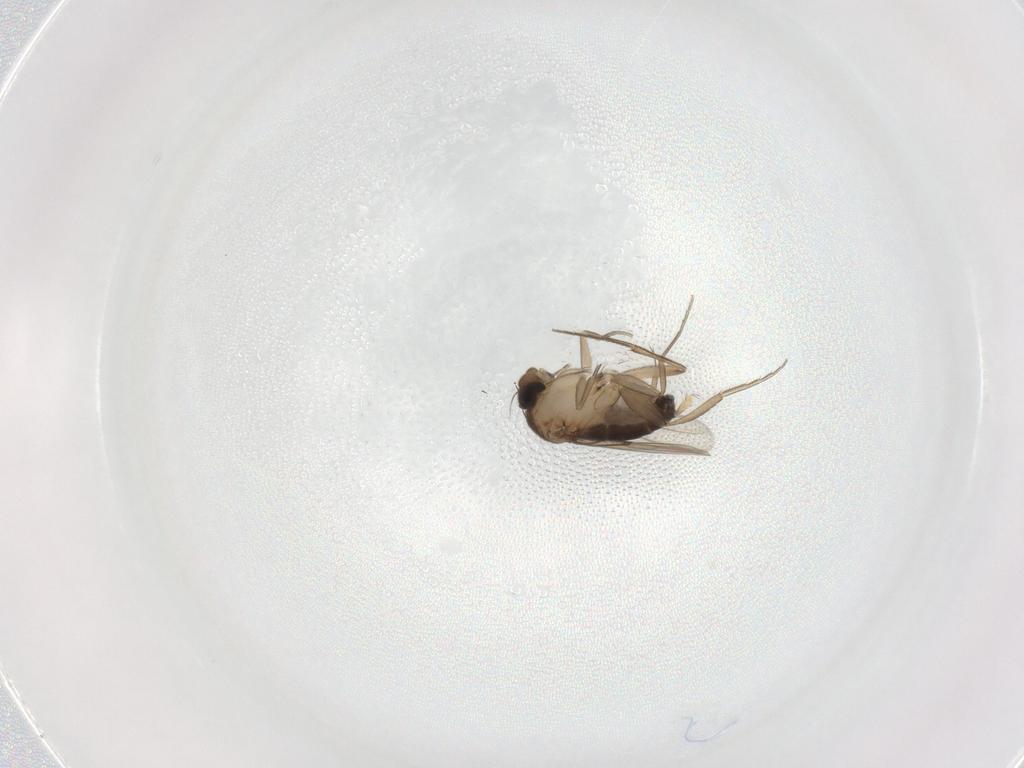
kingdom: Animalia
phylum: Arthropoda
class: Insecta
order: Diptera
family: Phoridae
